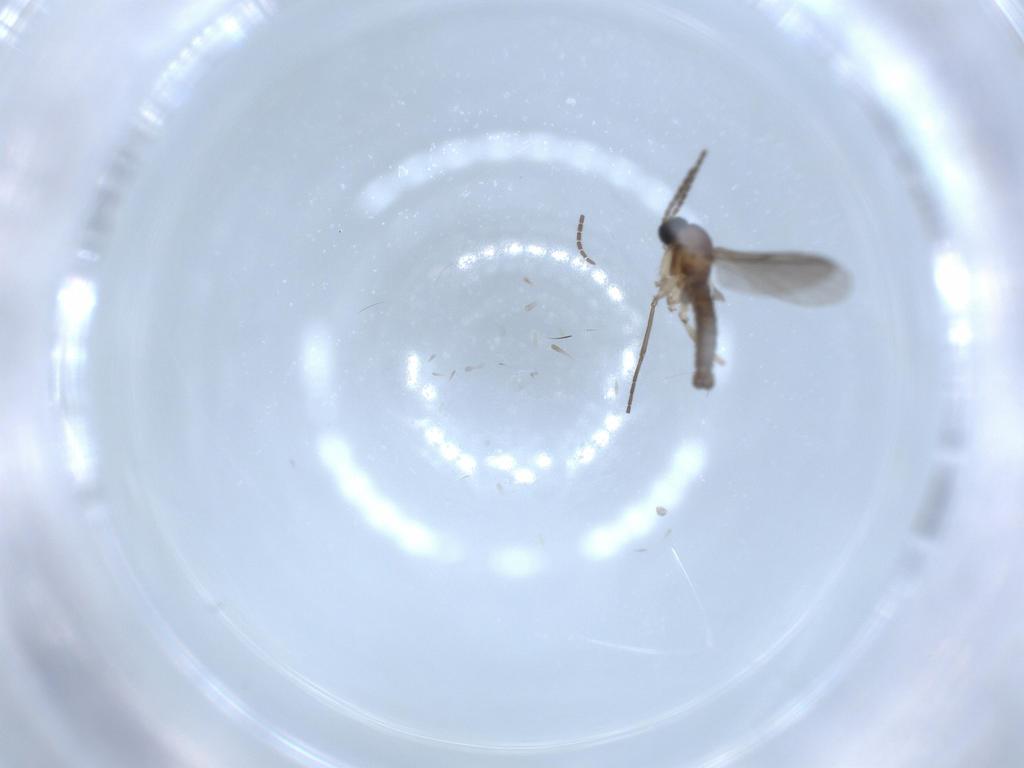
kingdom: Animalia
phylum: Arthropoda
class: Insecta
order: Diptera
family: Sciaridae
